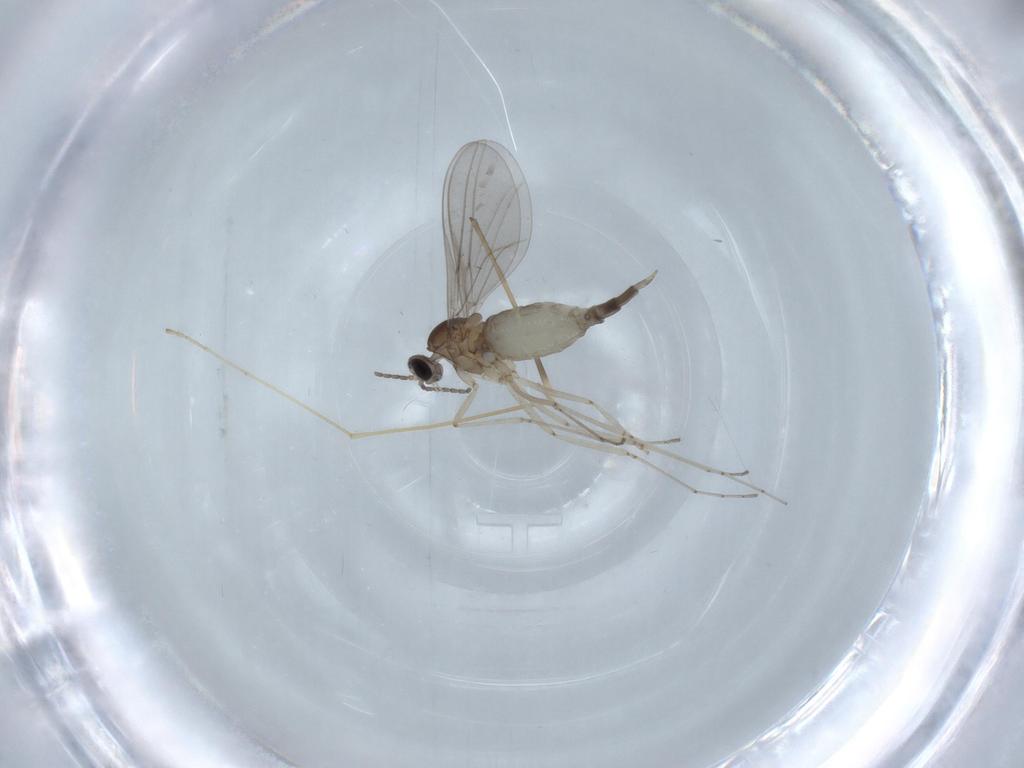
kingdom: Animalia
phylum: Arthropoda
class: Insecta
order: Diptera
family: Cecidomyiidae
